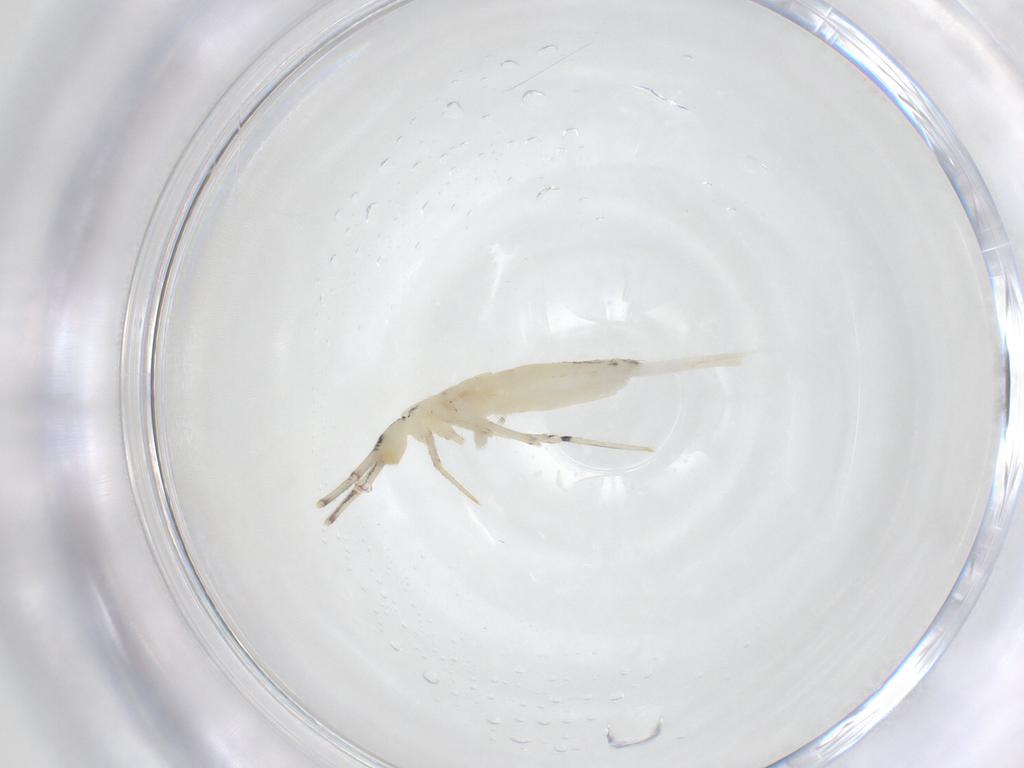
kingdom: Animalia
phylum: Arthropoda
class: Collembola
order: Entomobryomorpha
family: Entomobryidae
